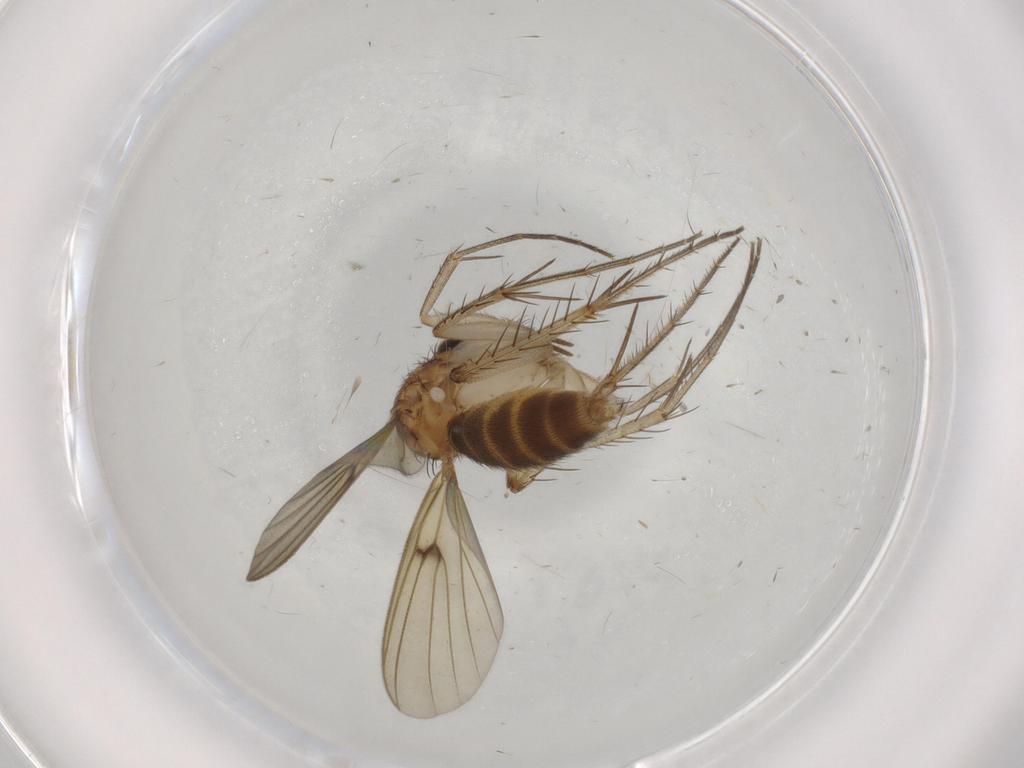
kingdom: Animalia
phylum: Arthropoda
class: Insecta
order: Diptera
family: Mycetophilidae
